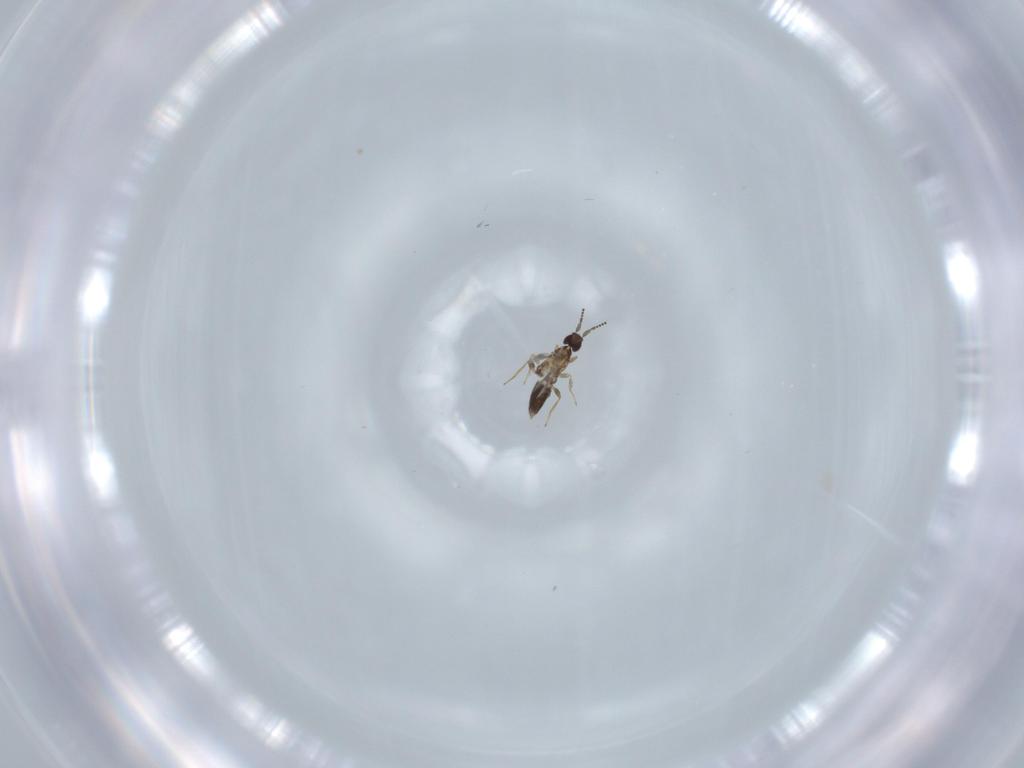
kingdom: Animalia
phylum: Arthropoda
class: Insecta
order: Hymenoptera
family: Mymaridae
